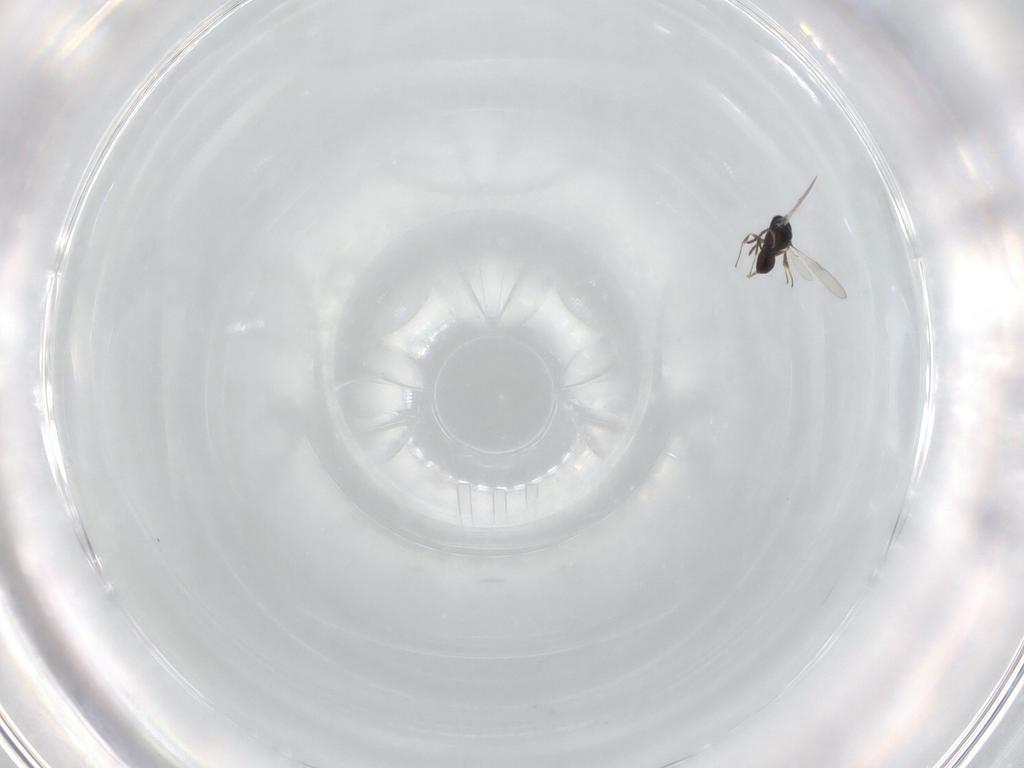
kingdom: Animalia
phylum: Arthropoda
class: Insecta
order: Hymenoptera
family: Scelionidae
